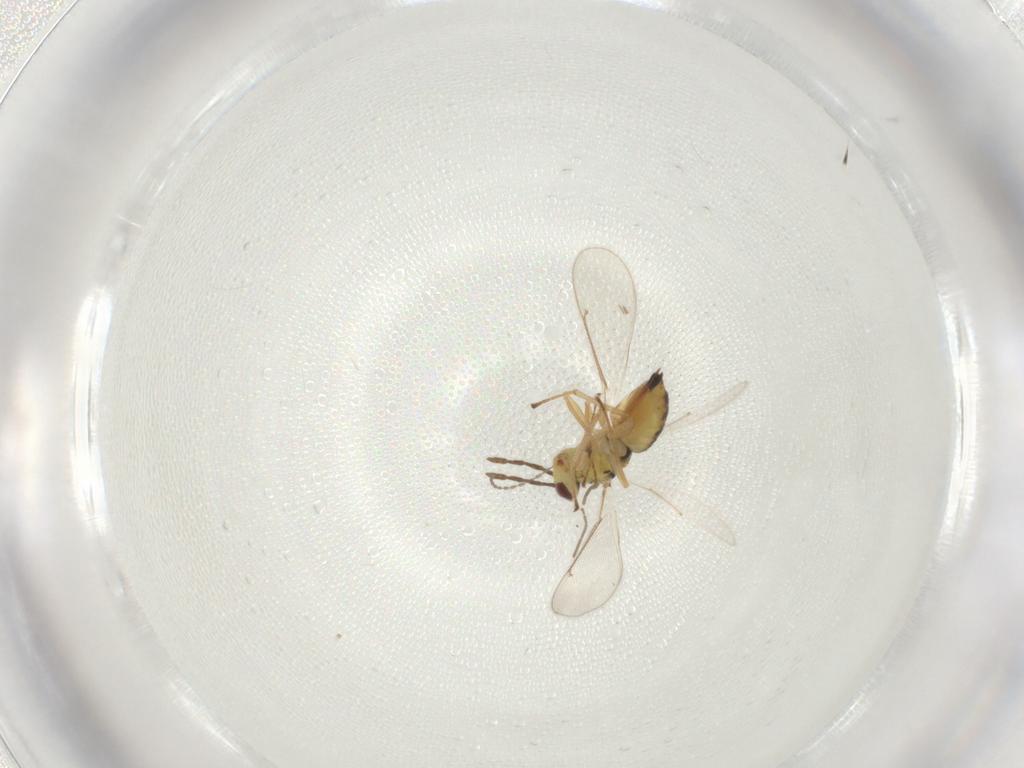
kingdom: Animalia
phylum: Arthropoda
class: Insecta
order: Hymenoptera
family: Eulophidae
